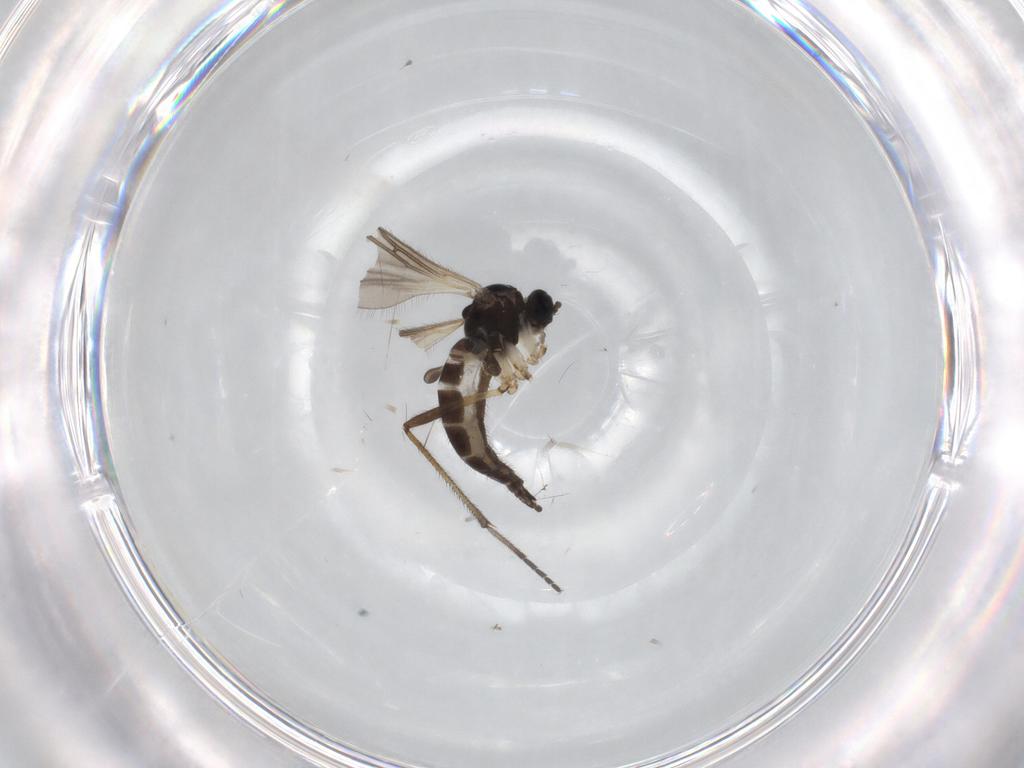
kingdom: Animalia
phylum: Arthropoda
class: Insecta
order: Diptera
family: Sciaridae
